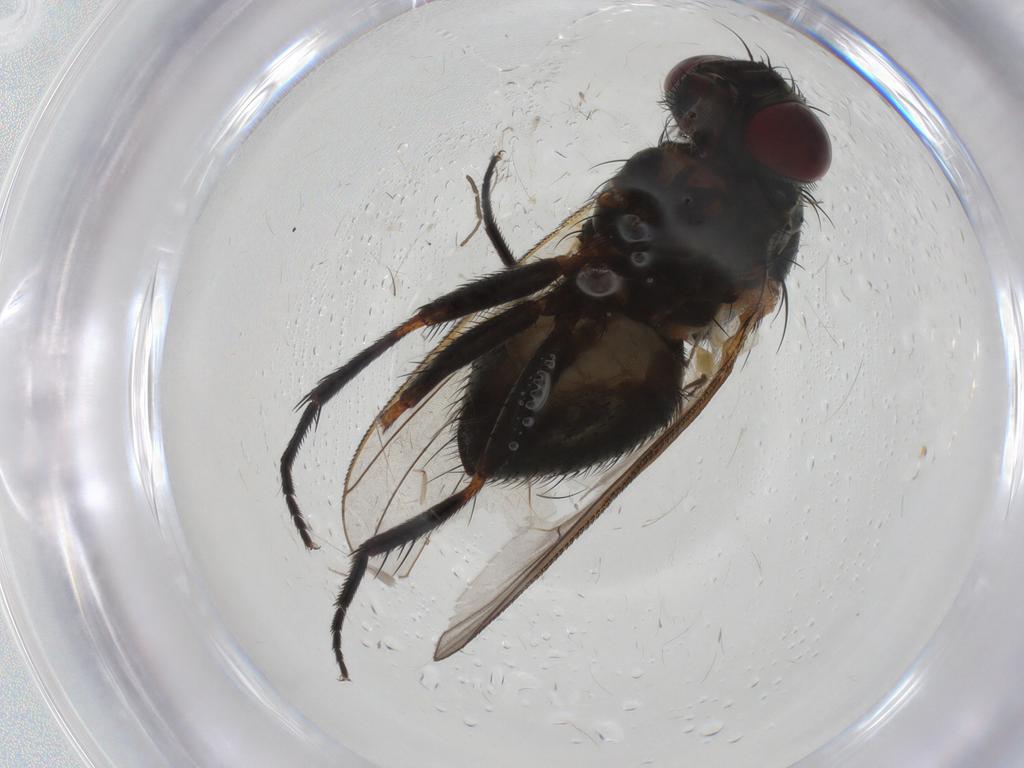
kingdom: Animalia
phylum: Arthropoda
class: Insecta
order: Diptera
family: Fannia
